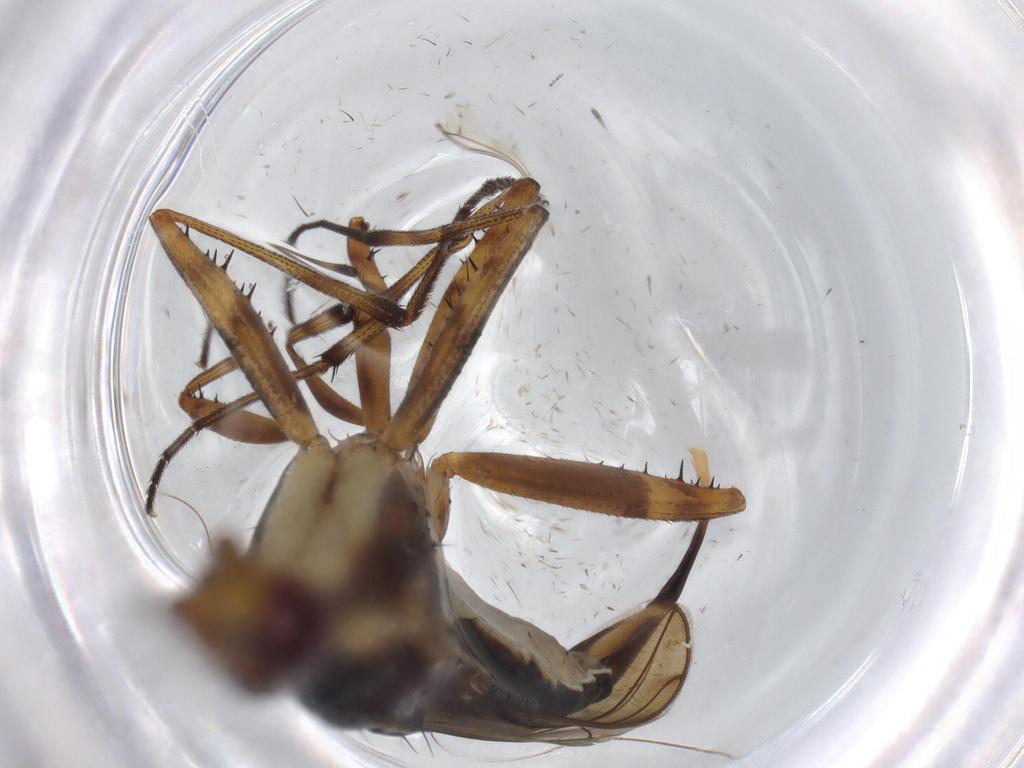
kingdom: Animalia
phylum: Arthropoda
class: Insecta
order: Diptera
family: Neriidae
